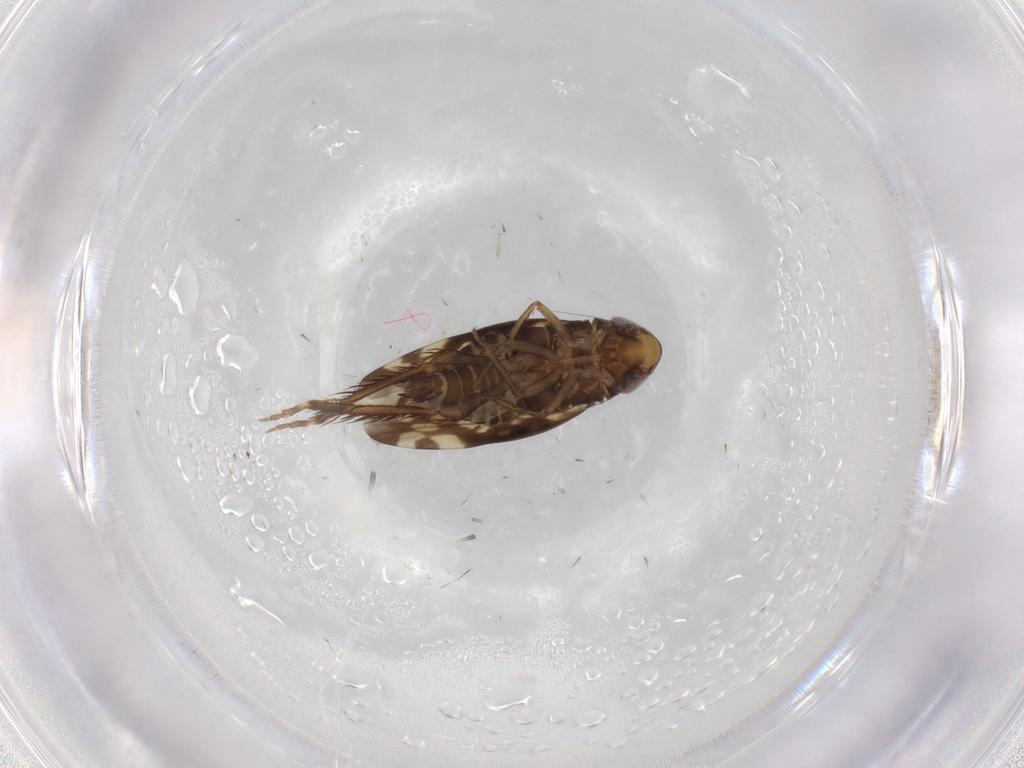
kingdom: Animalia
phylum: Arthropoda
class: Insecta
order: Hemiptera
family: Cicadellidae
